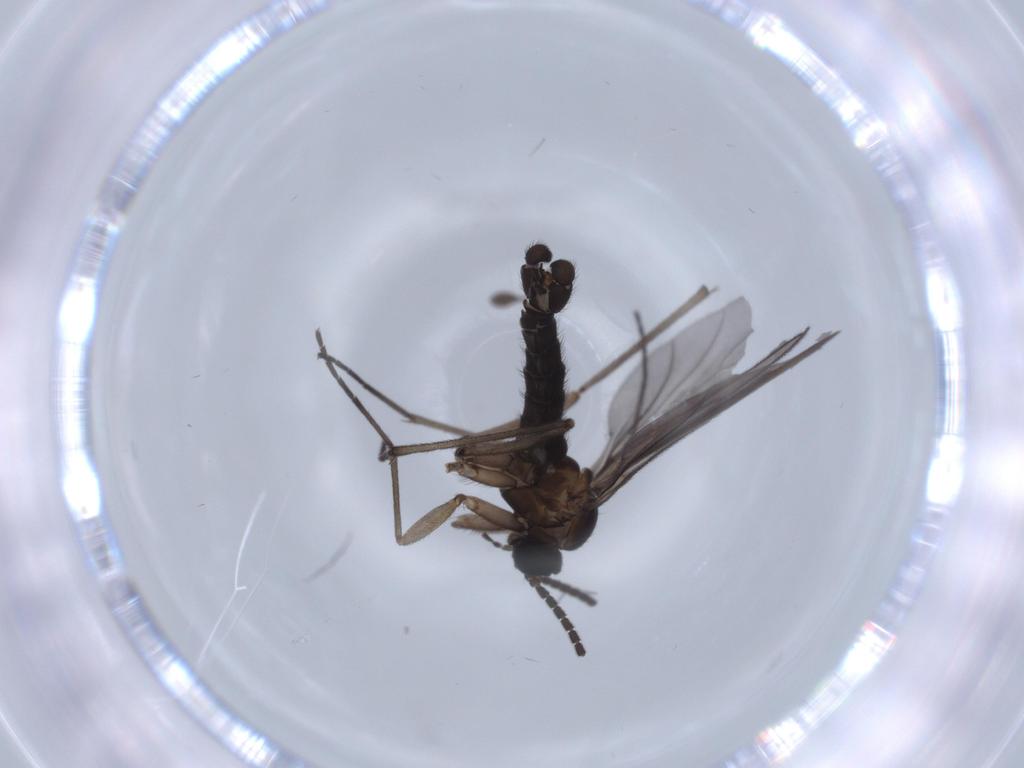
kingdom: Animalia
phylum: Arthropoda
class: Insecta
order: Diptera
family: Sciaridae
